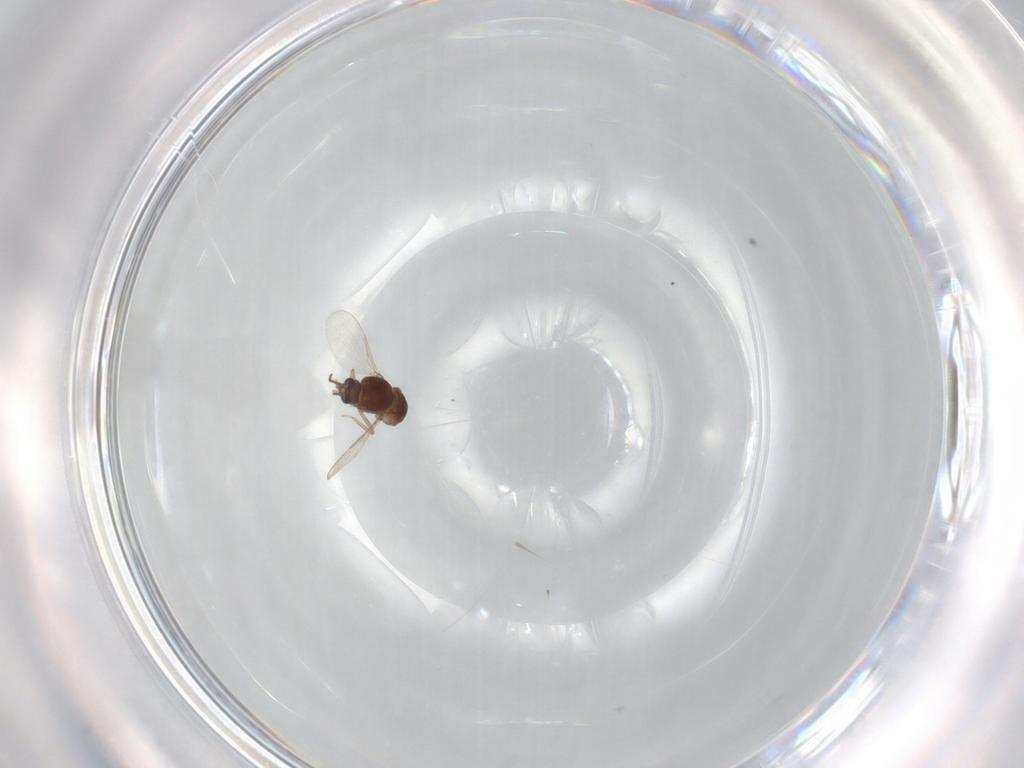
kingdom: Animalia
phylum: Arthropoda
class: Insecta
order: Diptera
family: Ceratopogonidae
